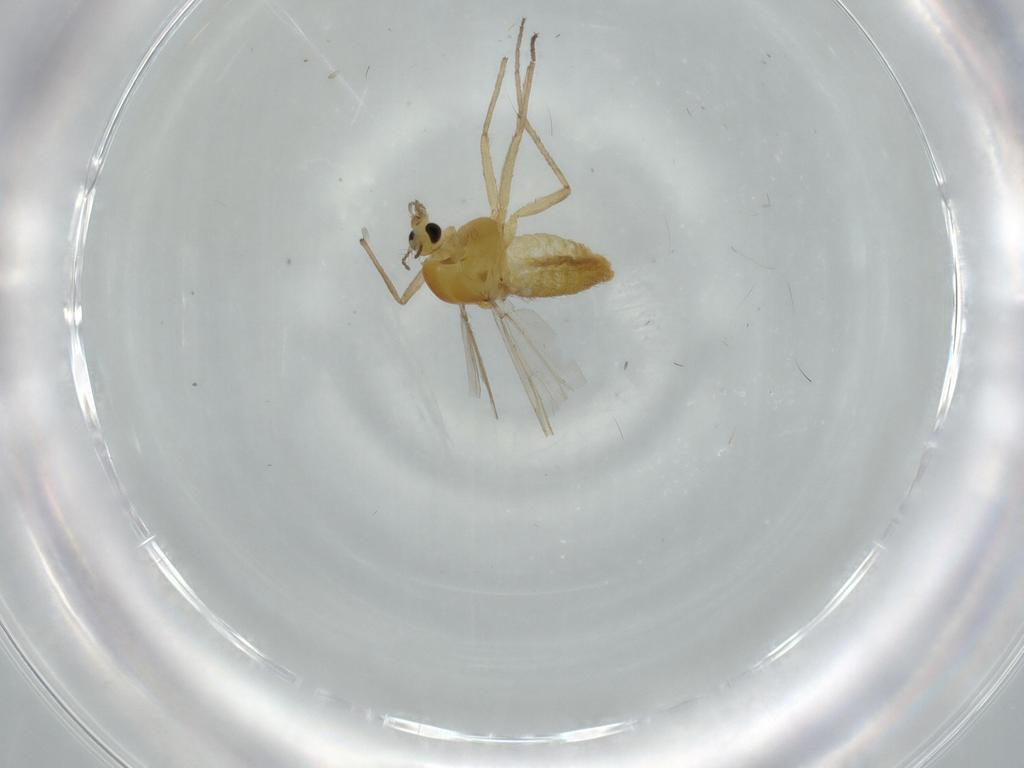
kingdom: Animalia
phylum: Arthropoda
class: Insecta
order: Diptera
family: Chironomidae
